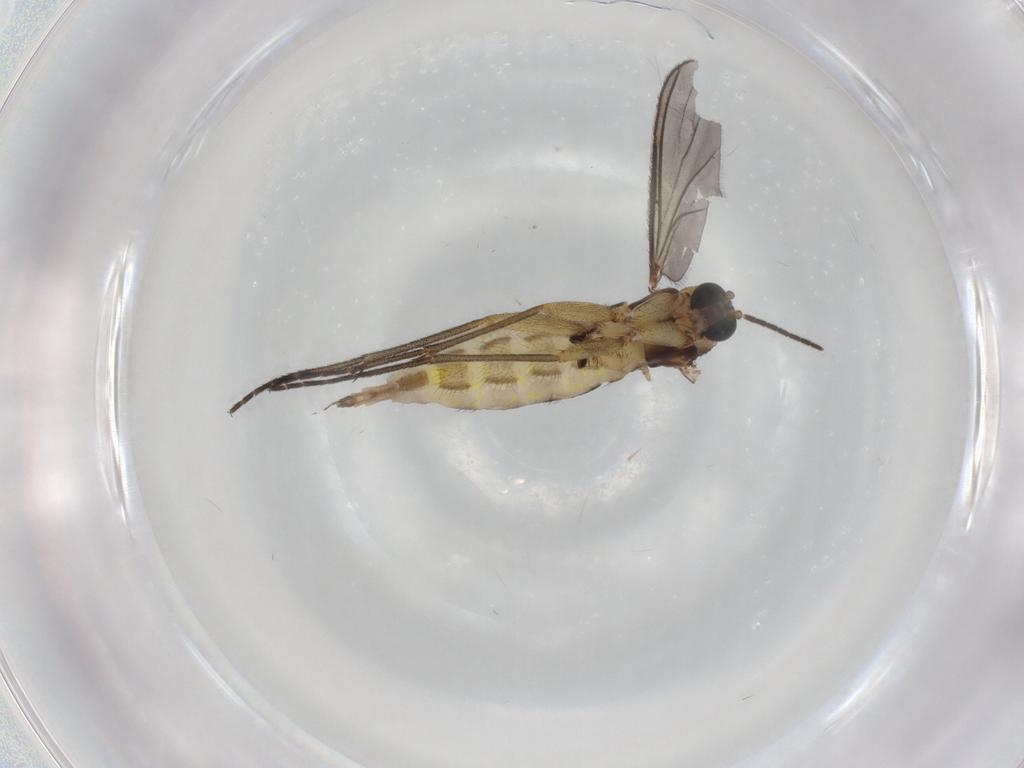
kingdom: Animalia
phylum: Arthropoda
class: Insecta
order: Diptera
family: Sciaridae
